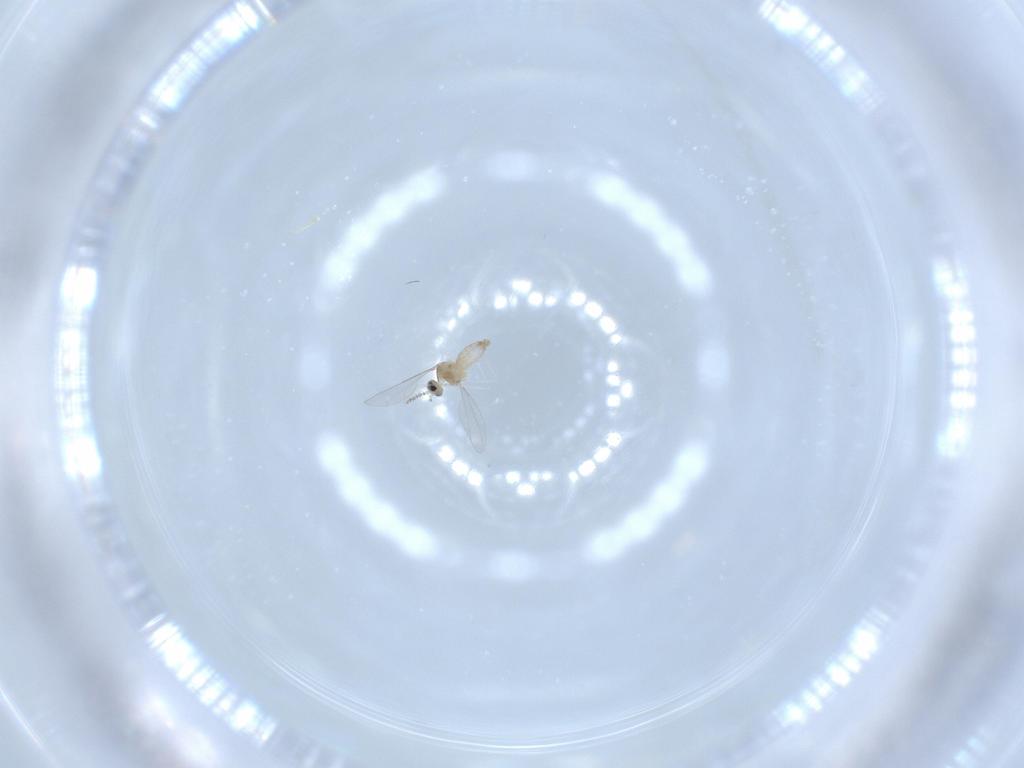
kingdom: Animalia
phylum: Arthropoda
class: Insecta
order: Diptera
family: Cecidomyiidae
